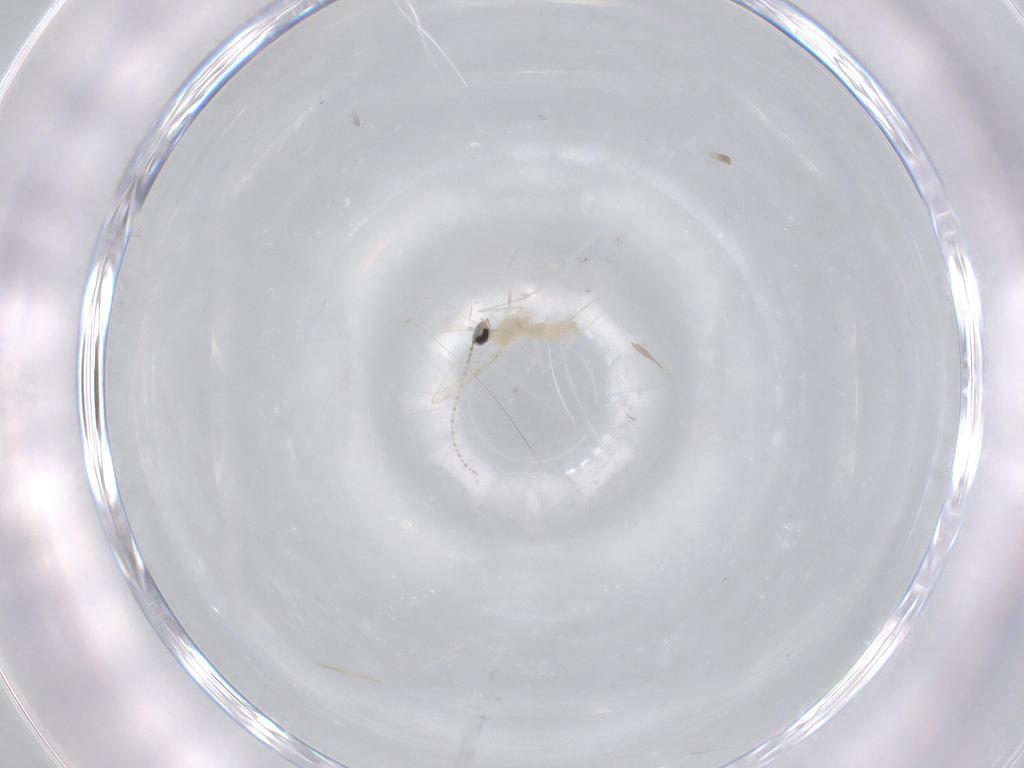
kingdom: Animalia
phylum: Arthropoda
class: Insecta
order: Diptera
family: Cecidomyiidae
